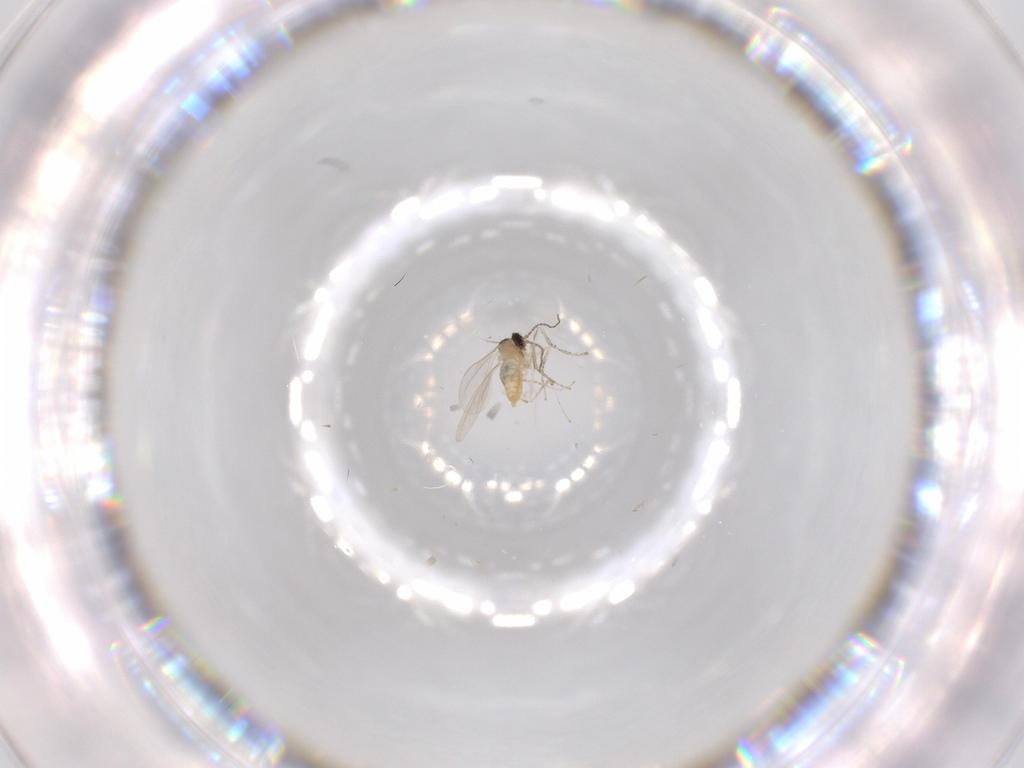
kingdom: Animalia
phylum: Arthropoda
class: Insecta
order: Diptera
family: Cecidomyiidae
